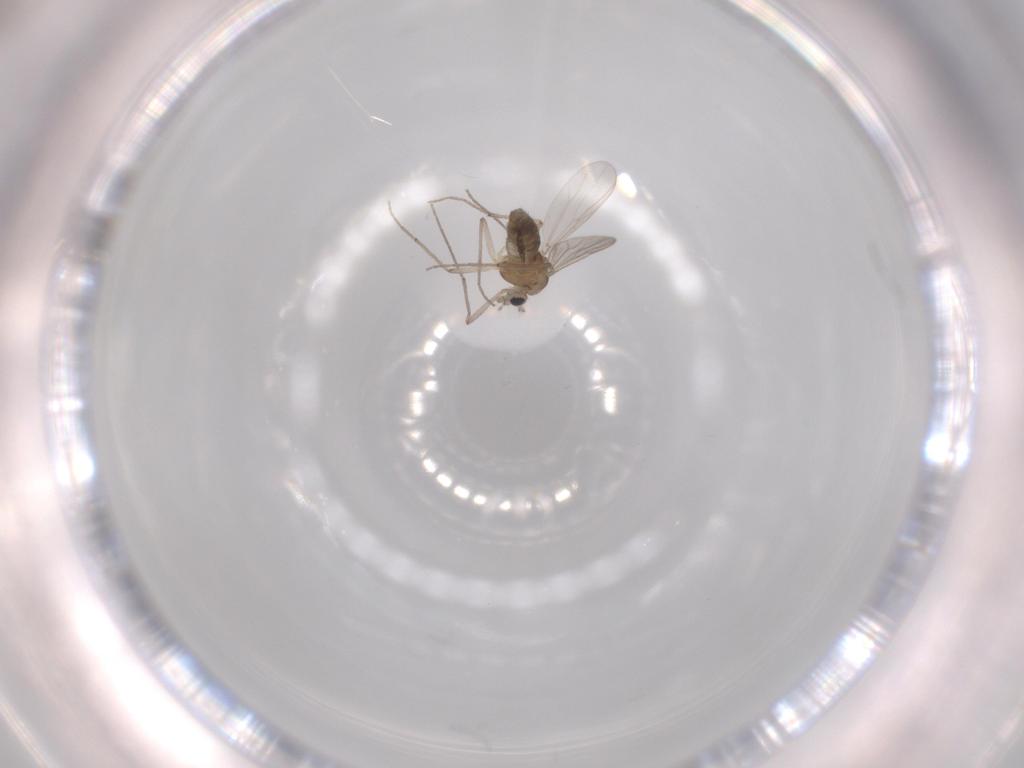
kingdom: Animalia
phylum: Arthropoda
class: Insecta
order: Diptera
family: Chironomidae
